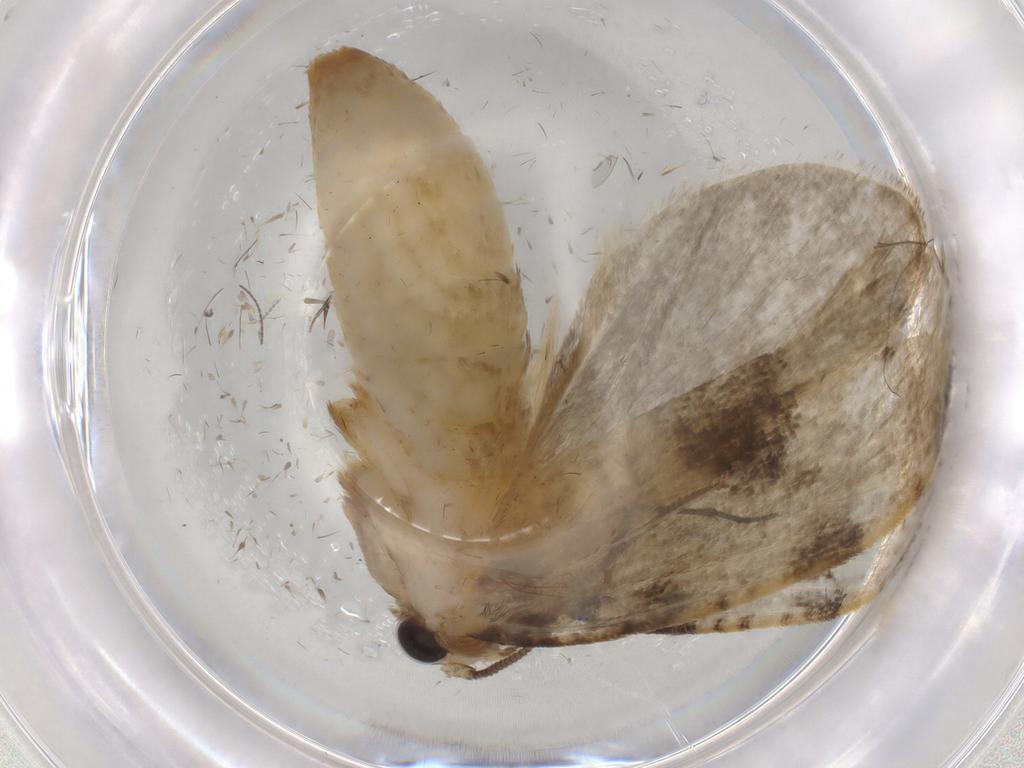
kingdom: Animalia
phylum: Arthropoda
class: Insecta
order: Lepidoptera
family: Tineidae
